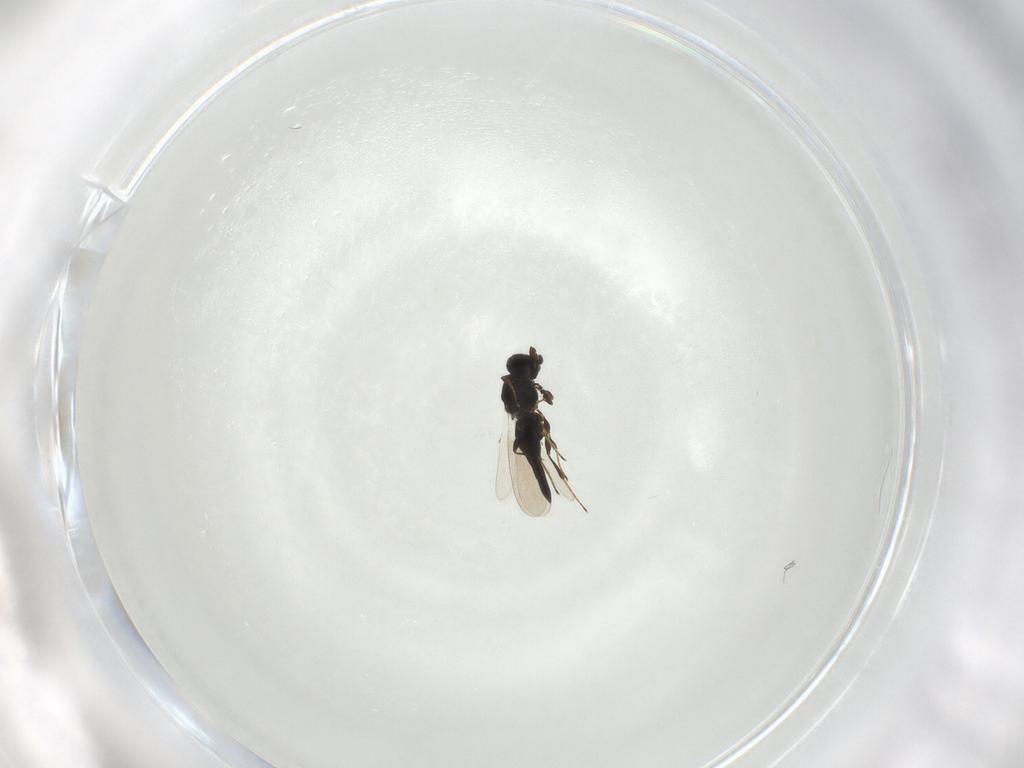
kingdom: Animalia
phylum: Arthropoda
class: Insecta
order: Hymenoptera
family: Platygastridae
